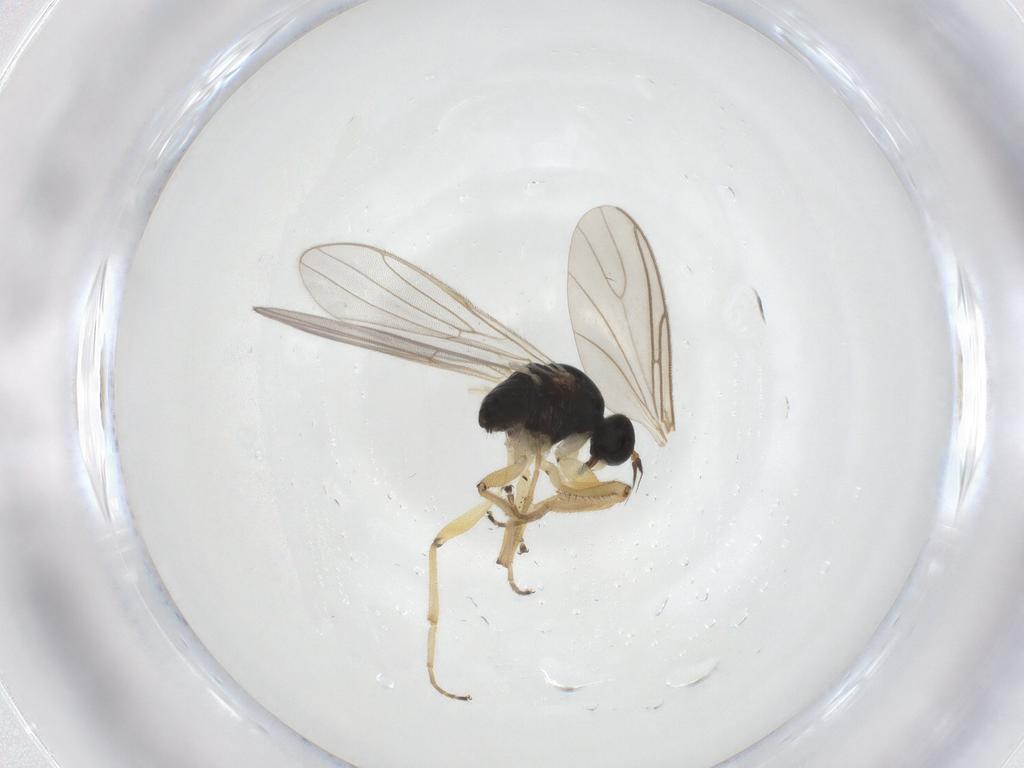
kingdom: Animalia
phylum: Arthropoda
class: Insecta
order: Diptera
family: Hybotidae
